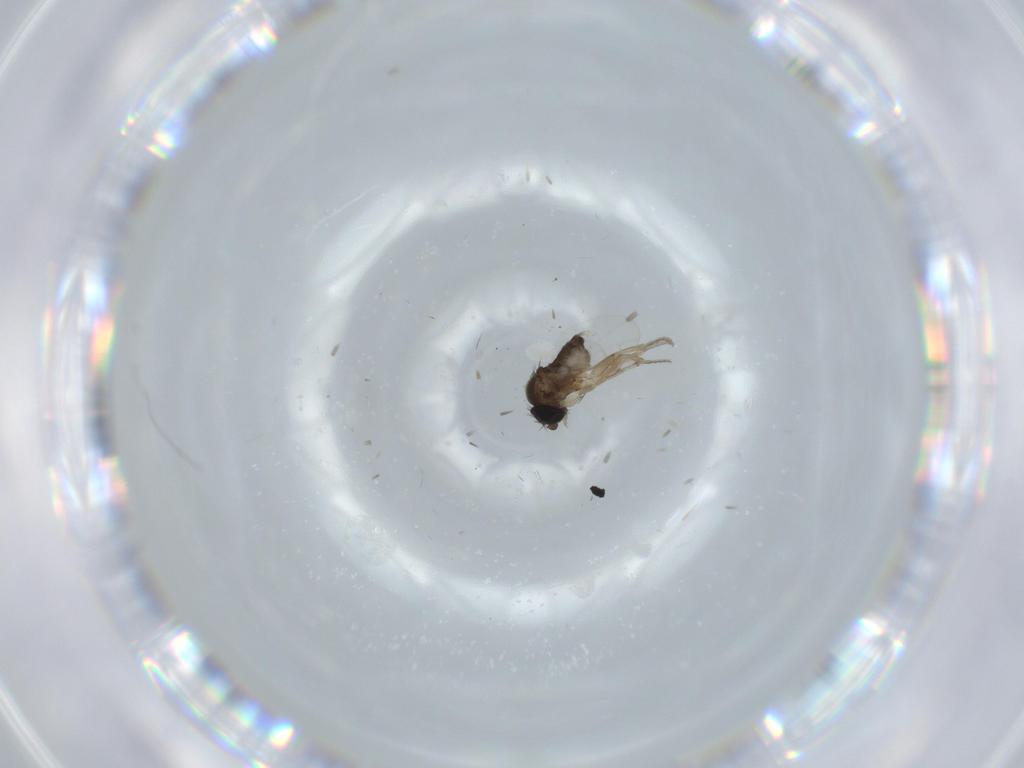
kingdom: Animalia
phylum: Arthropoda
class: Insecta
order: Diptera
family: Sciaridae
